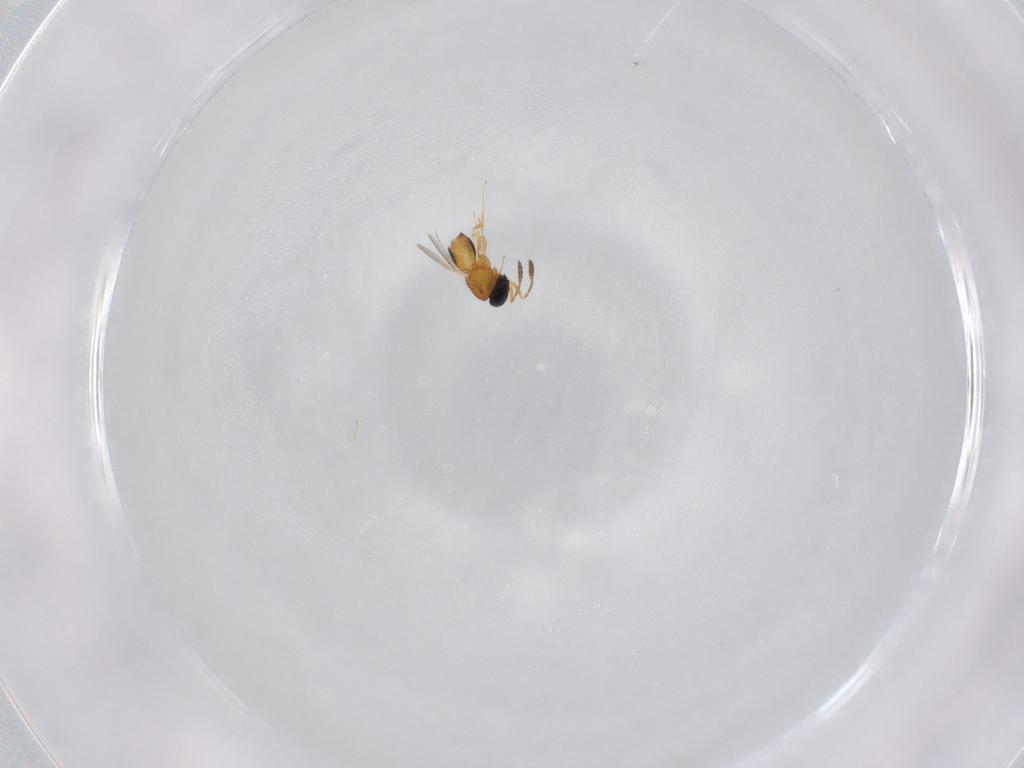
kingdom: Animalia
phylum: Arthropoda
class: Insecta
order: Hymenoptera
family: Scelionidae
